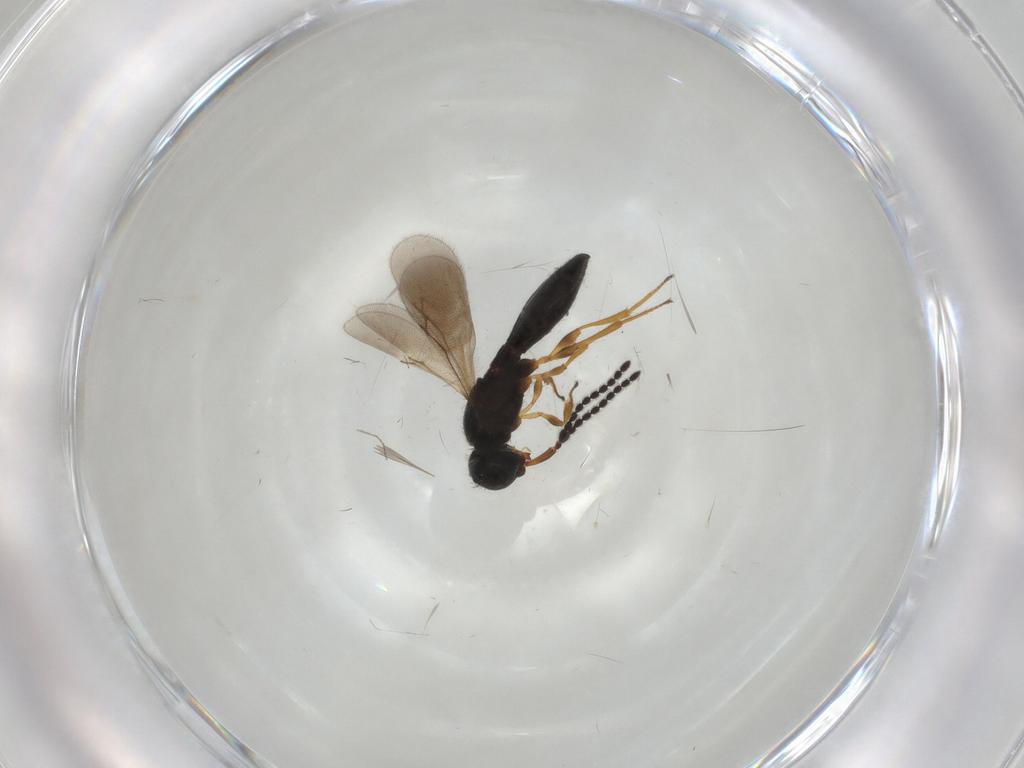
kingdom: Animalia
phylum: Arthropoda
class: Insecta
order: Hymenoptera
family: Scelionidae
